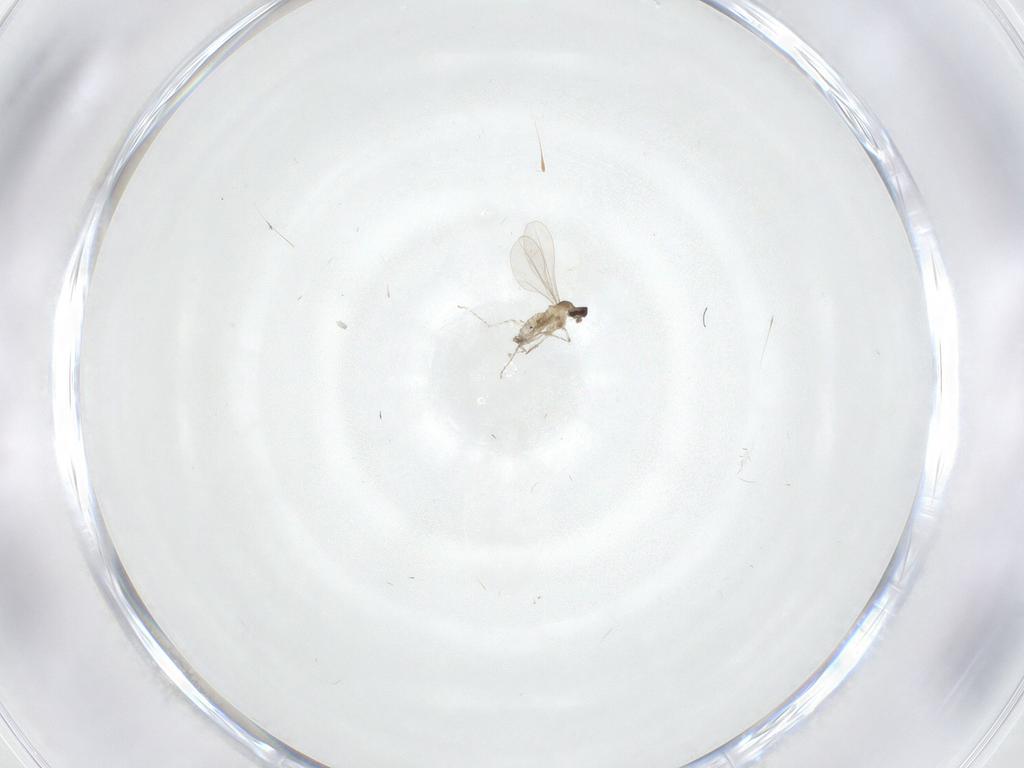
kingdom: Animalia
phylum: Arthropoda
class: Insecta
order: Diptera
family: Cecidomyiidae
